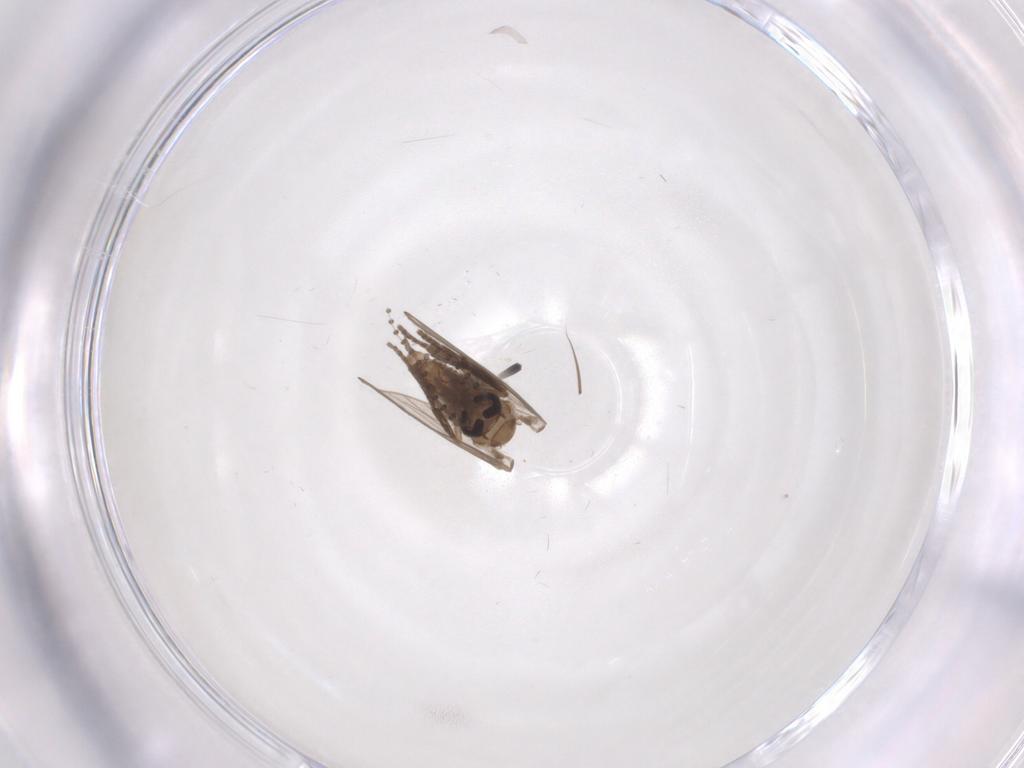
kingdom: Animalia
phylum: Arthropoda
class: Insecta
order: Diptera
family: Psychodidae
